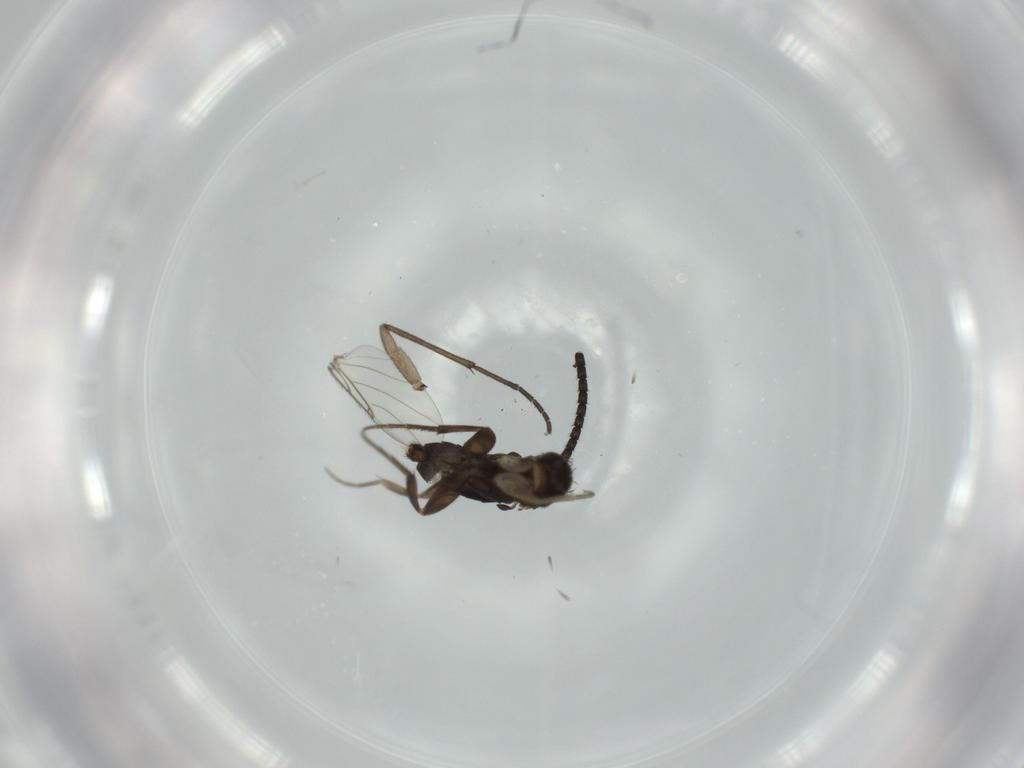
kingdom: Animalia
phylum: Arthropoda
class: Insecta
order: Diptera
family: Phoridae
